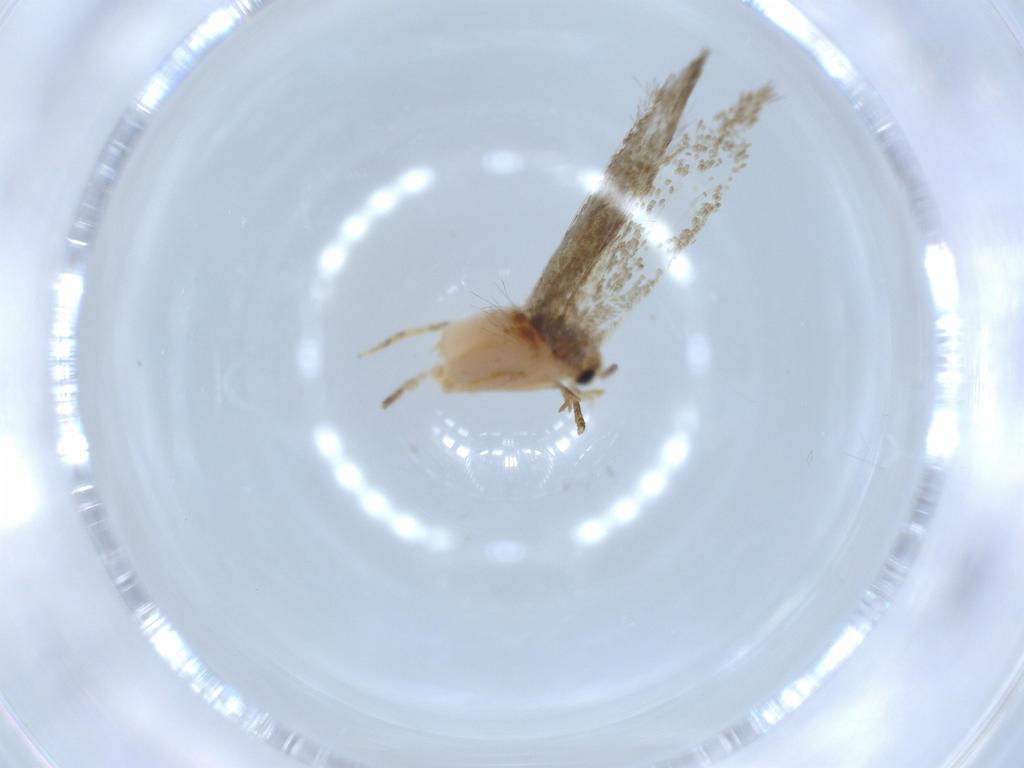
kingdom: Animalia
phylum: Arthropoda
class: Insecta
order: Lepidoptera
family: Tineidae
